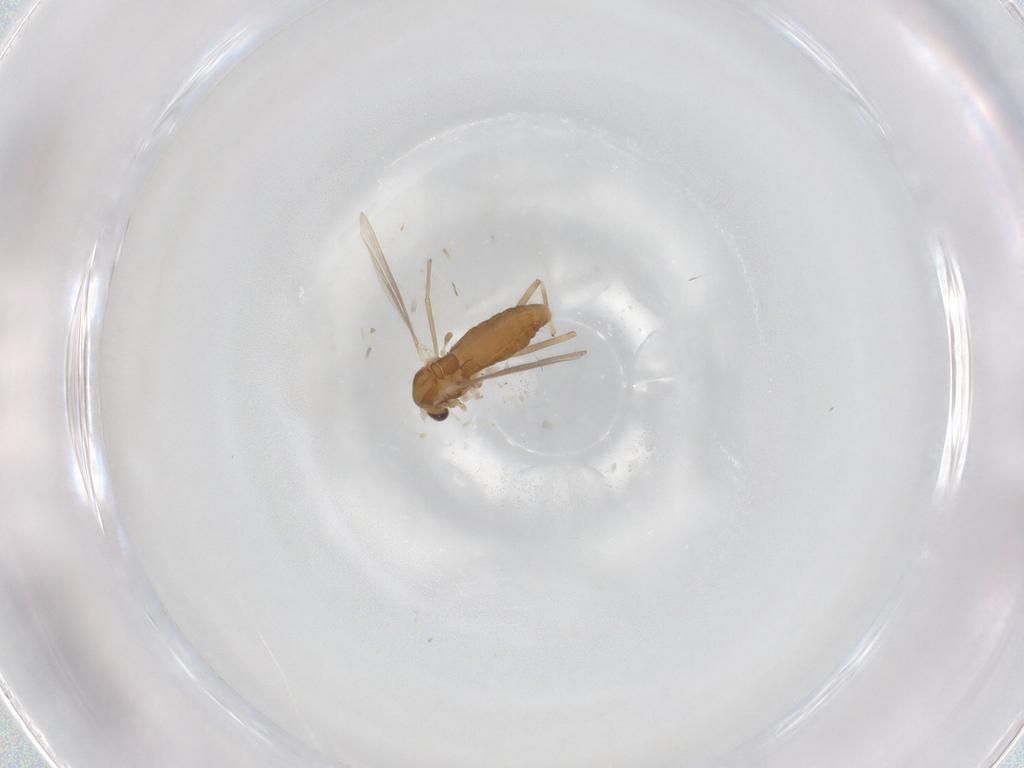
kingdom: Animalia
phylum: Arthropoda
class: Insecta
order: Diptera
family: Chironomidae
